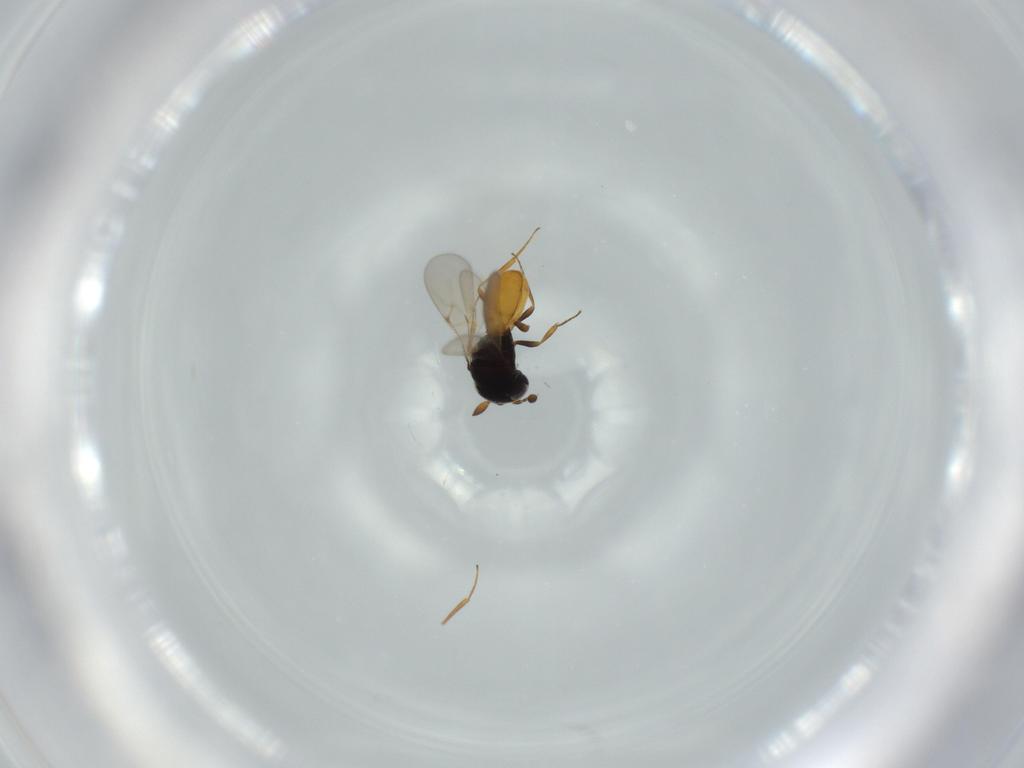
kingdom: Animalia
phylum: Arthropoda
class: Insecta
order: Hymenoptera
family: Scelionidae
